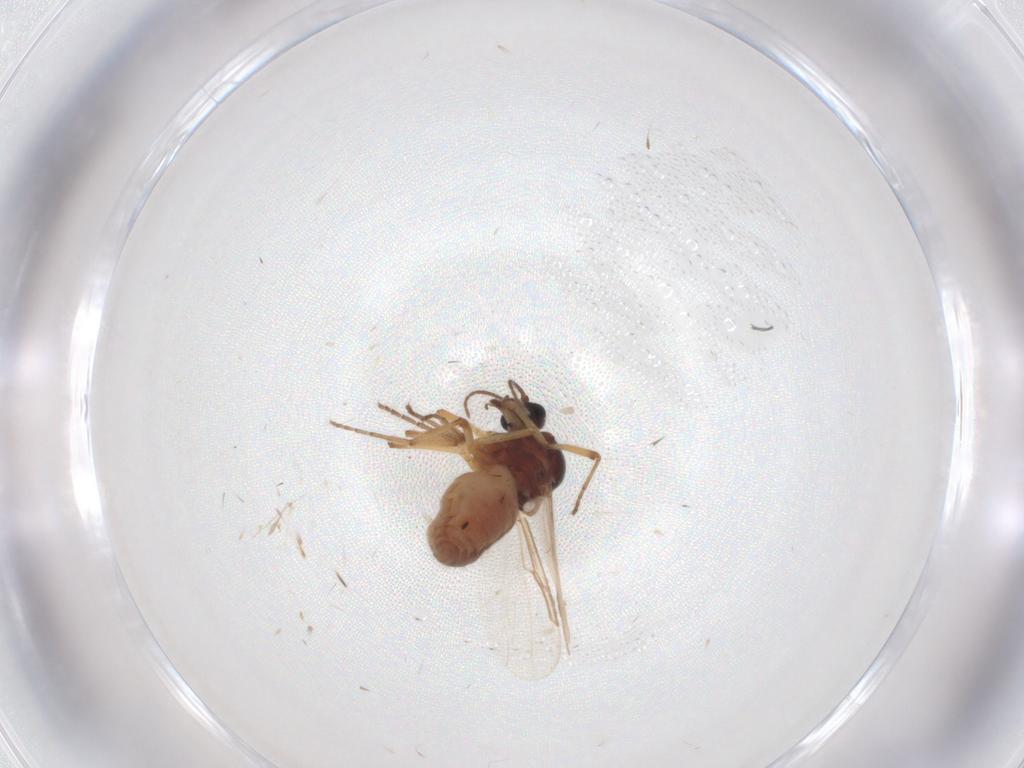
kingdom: Animalia
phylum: Arthropoda
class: Insecta
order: Diptera
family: Ceratopogonidae
